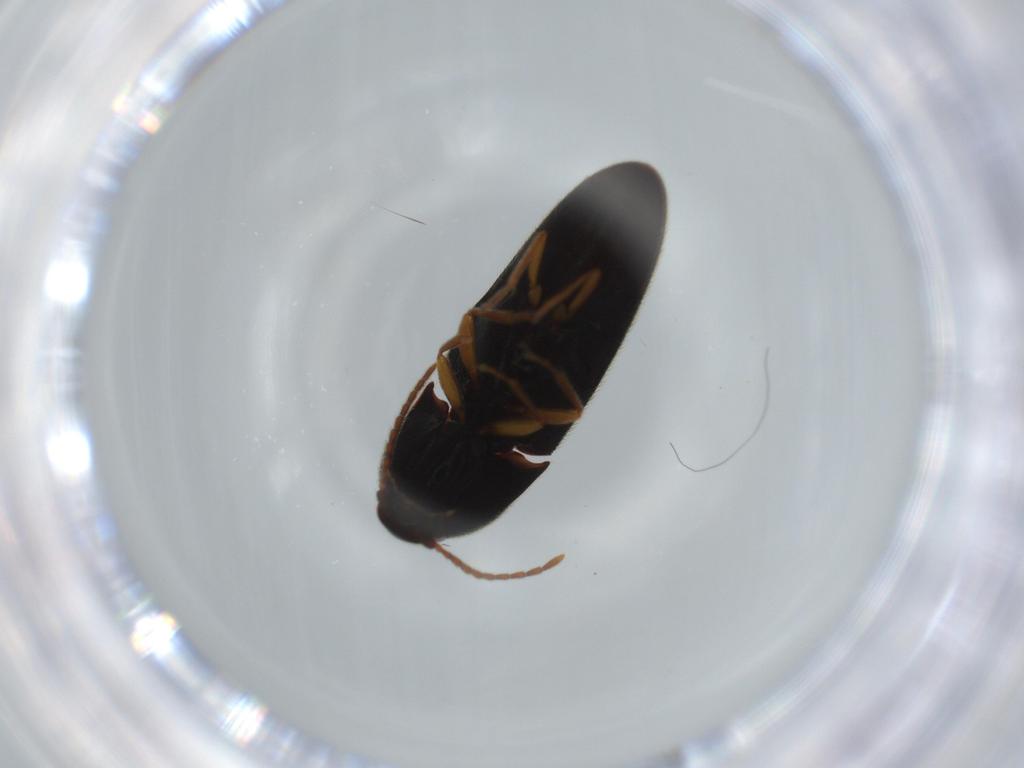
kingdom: Animalia
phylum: Arthropoda
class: Insecta
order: Coleoptera
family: Elateridae
